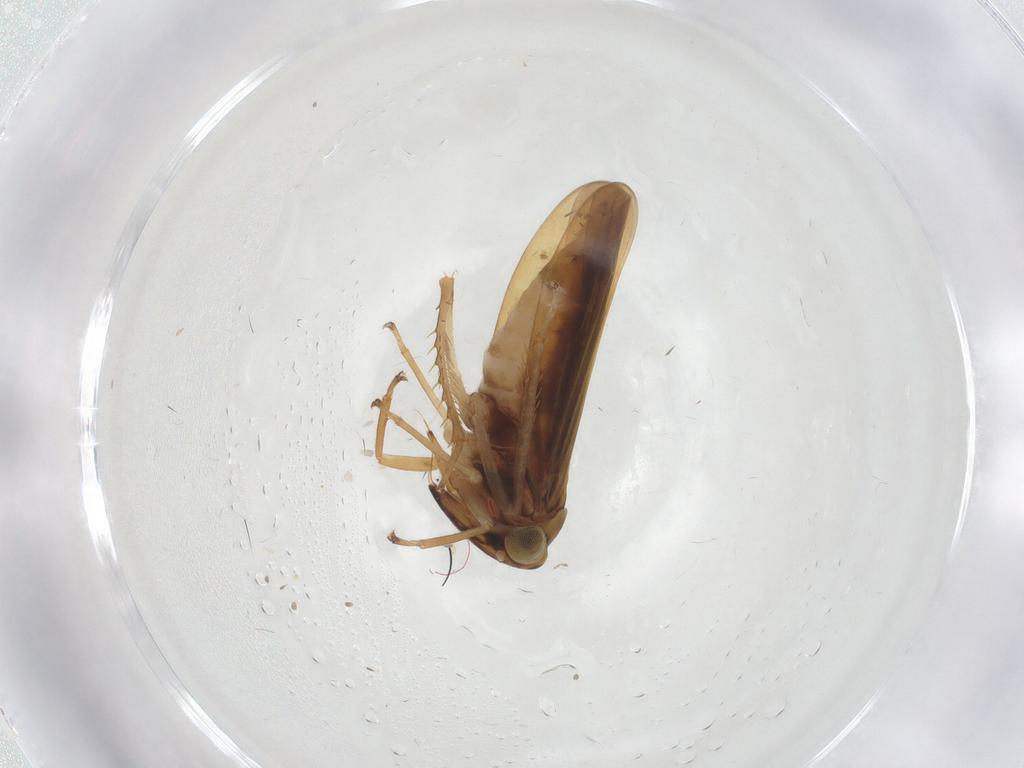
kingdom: Animalia
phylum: Arthropoda
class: Insecta
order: Hemiptera
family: Cicadellidae
